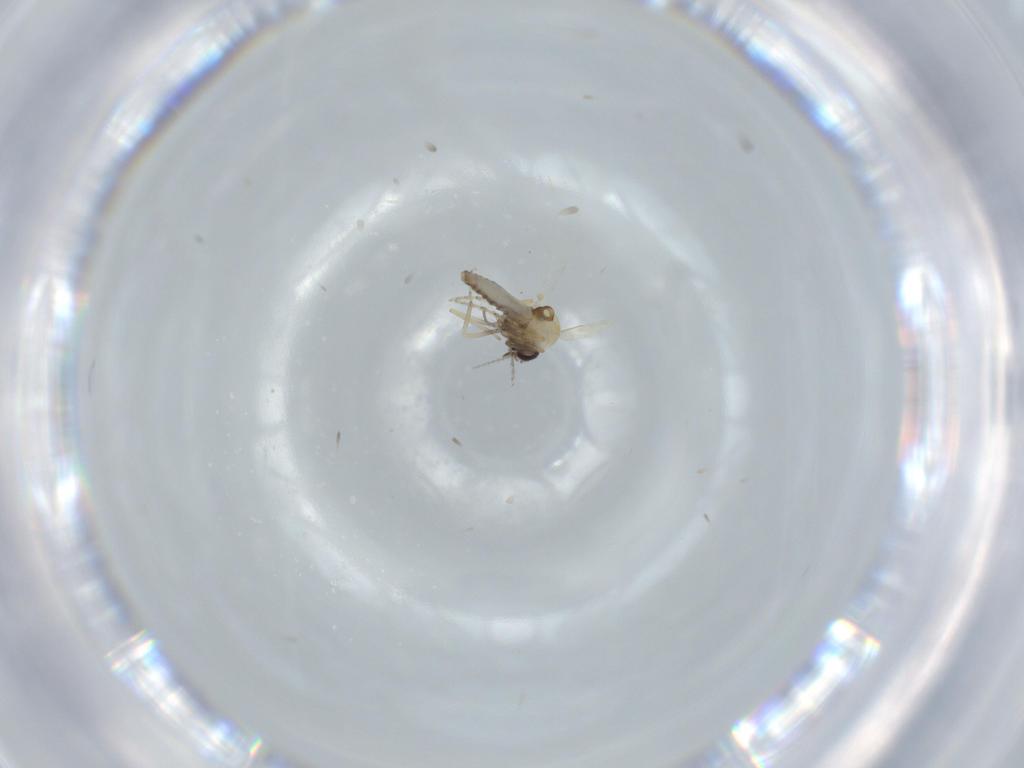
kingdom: Animalia
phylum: Arthropoda
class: Insecta
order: Diptera
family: Ceratopogonidae
